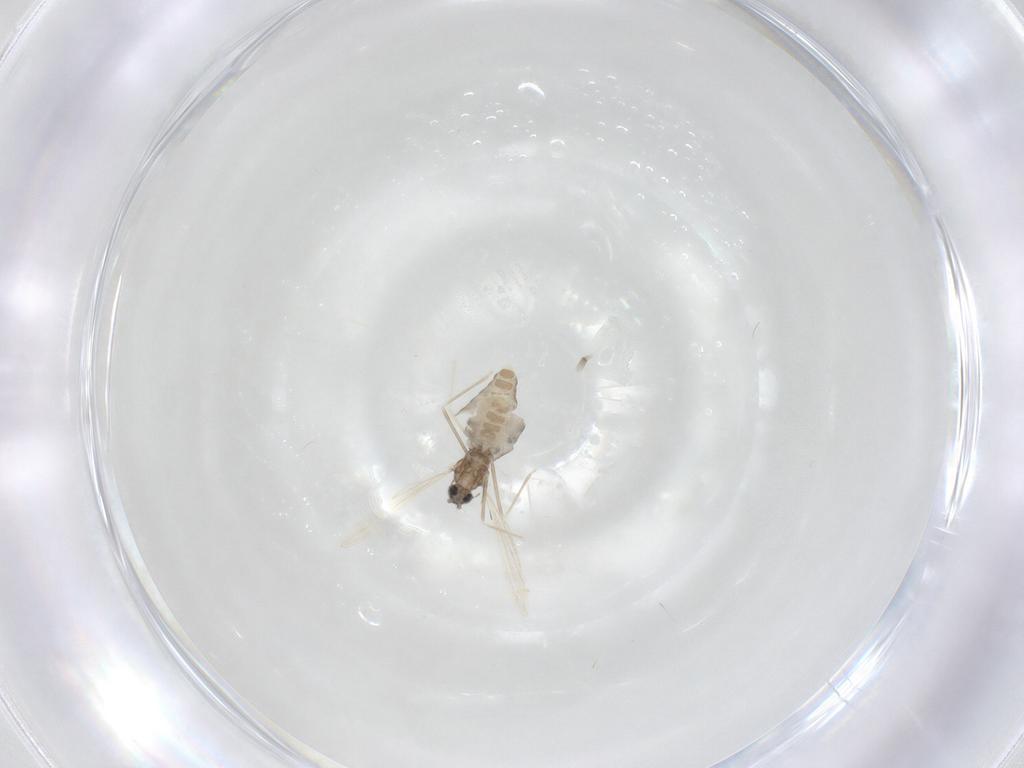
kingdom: Animalia
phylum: Arthropoda
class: Insecta
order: Diptera
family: Cecidomyiidae
